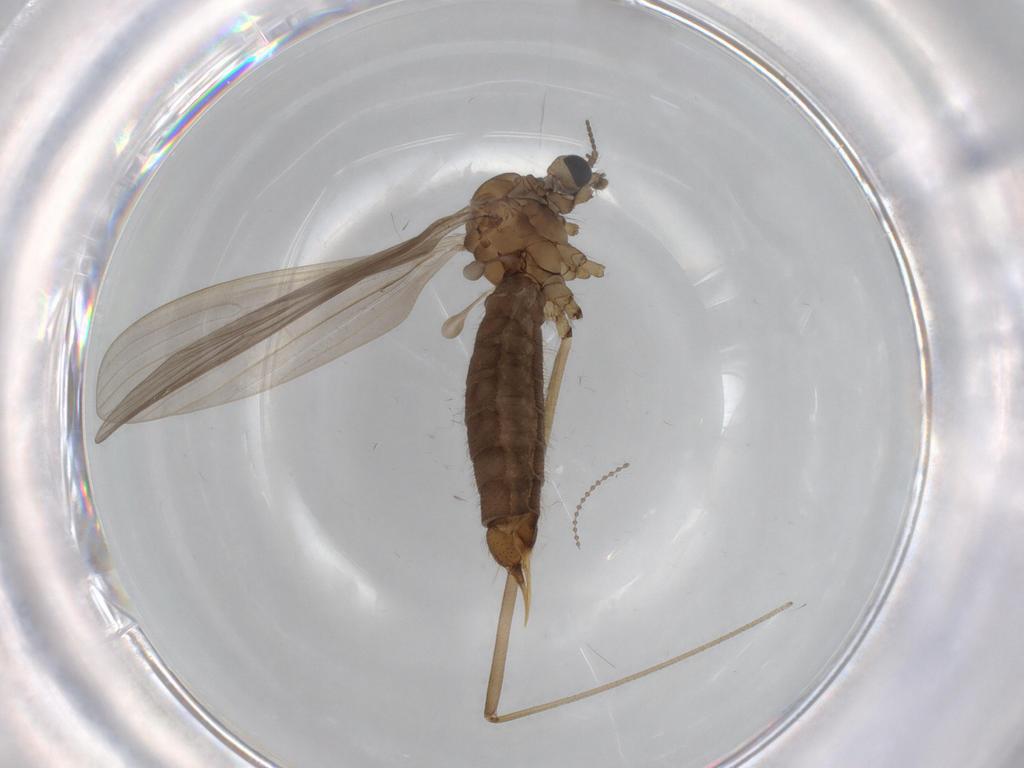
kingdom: Animalia
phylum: Arthropoda
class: Insecta
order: Diptera
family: Limoniidae
